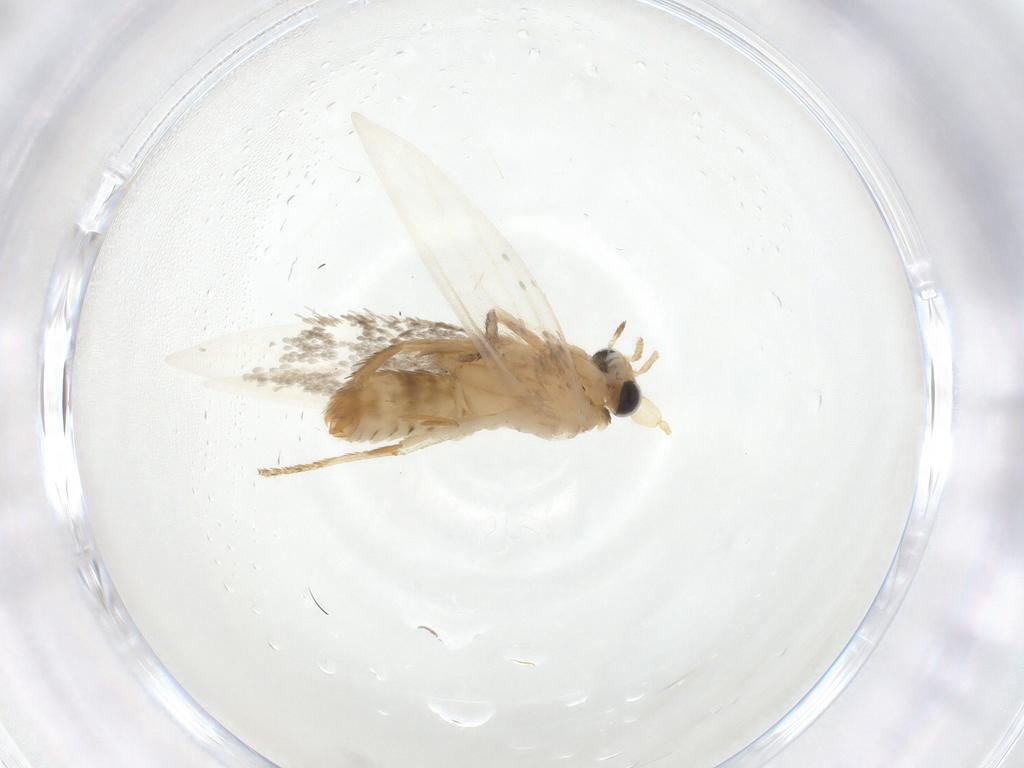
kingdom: Animalia
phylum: Arthropoda
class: Insecta
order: Lepidoptera
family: Nepticulidae
